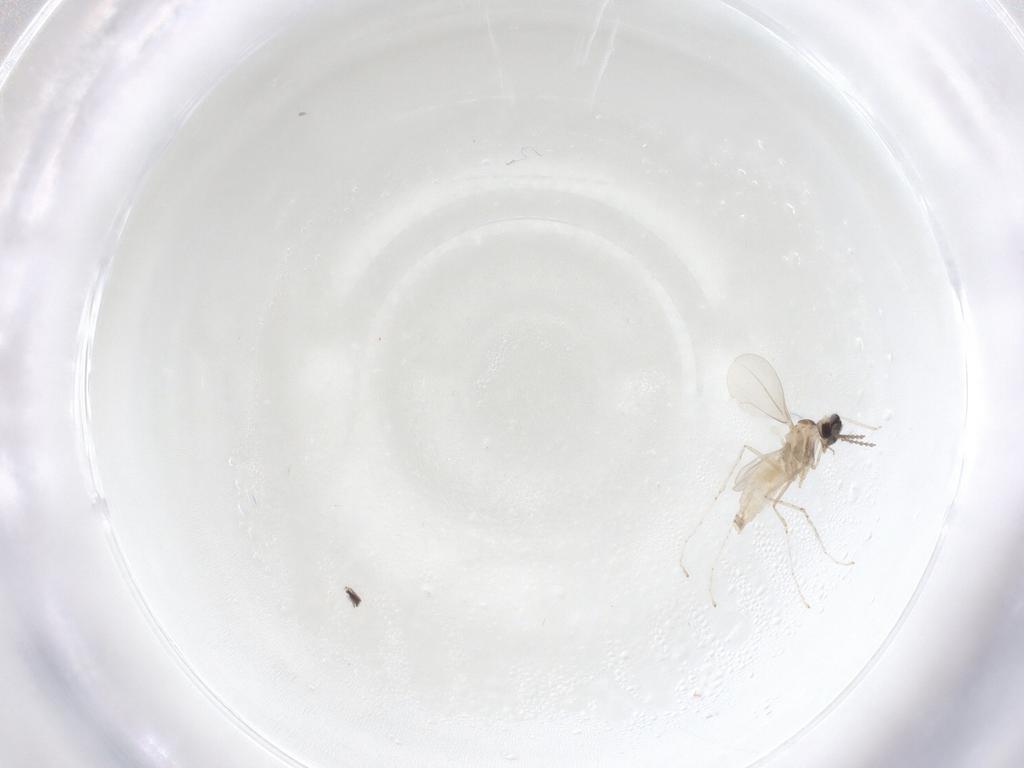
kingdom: Animalia
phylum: Arthropoda
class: Insecta
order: Diptera
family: Cecidomyiidae
